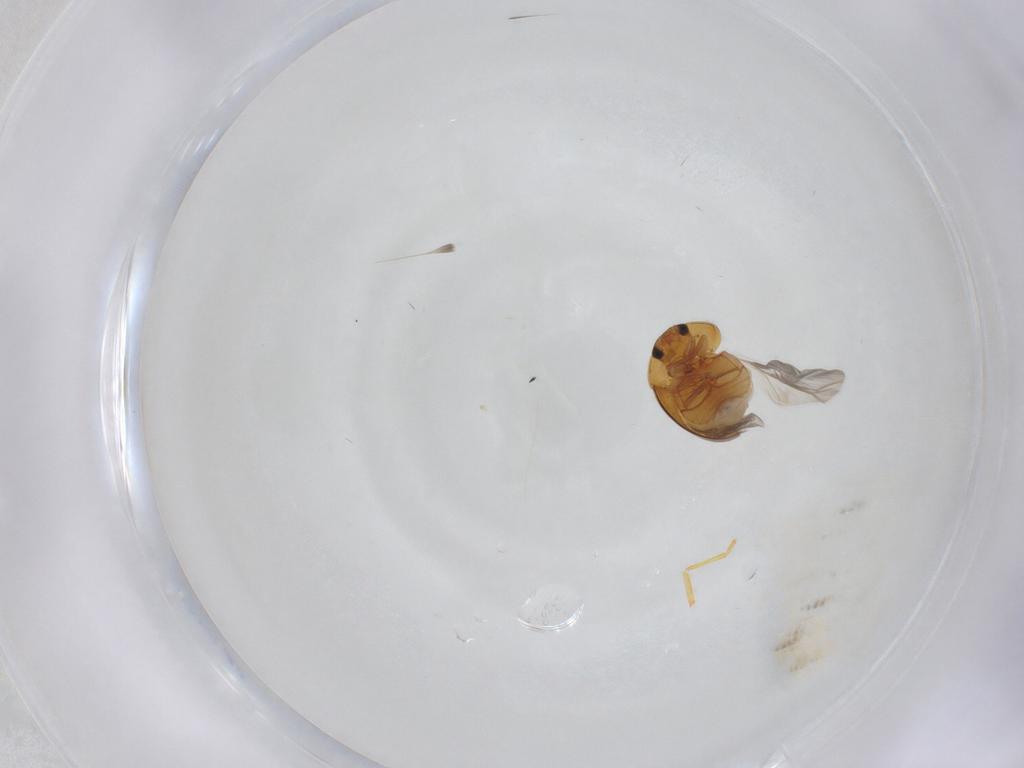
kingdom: Animalia
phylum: Arthropoda
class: Insecta
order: Coleoptera
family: Phalacridae
